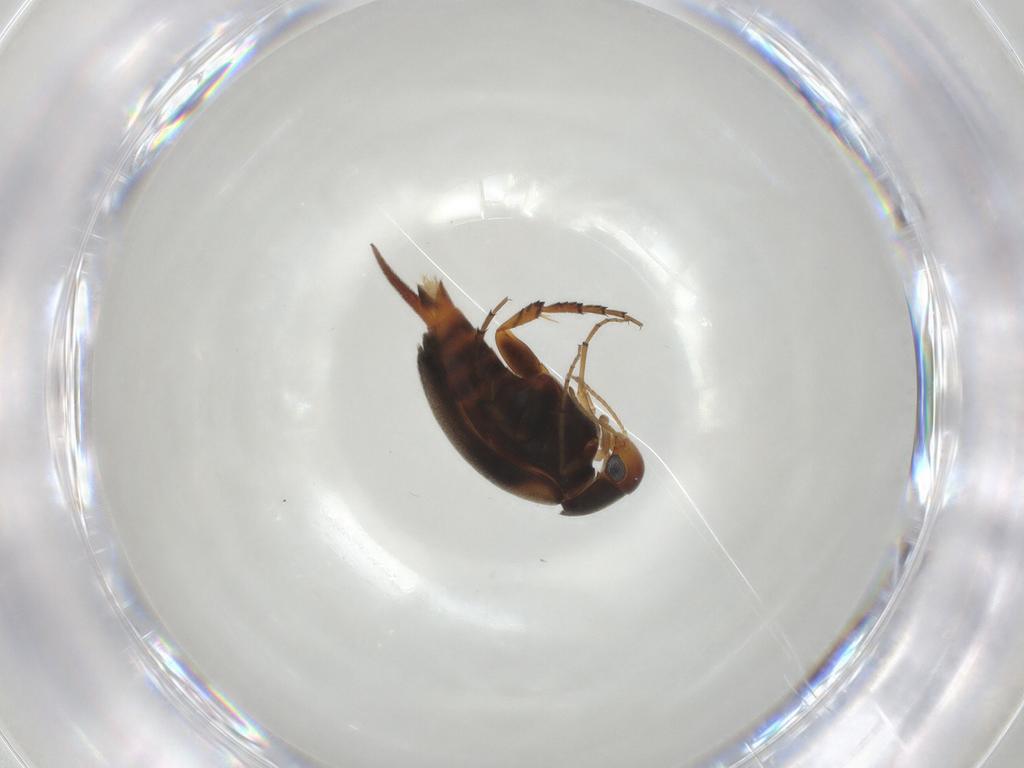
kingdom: Animalia
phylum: Arthropoda
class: Insecta
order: Coleoptera
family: Mordellidae
